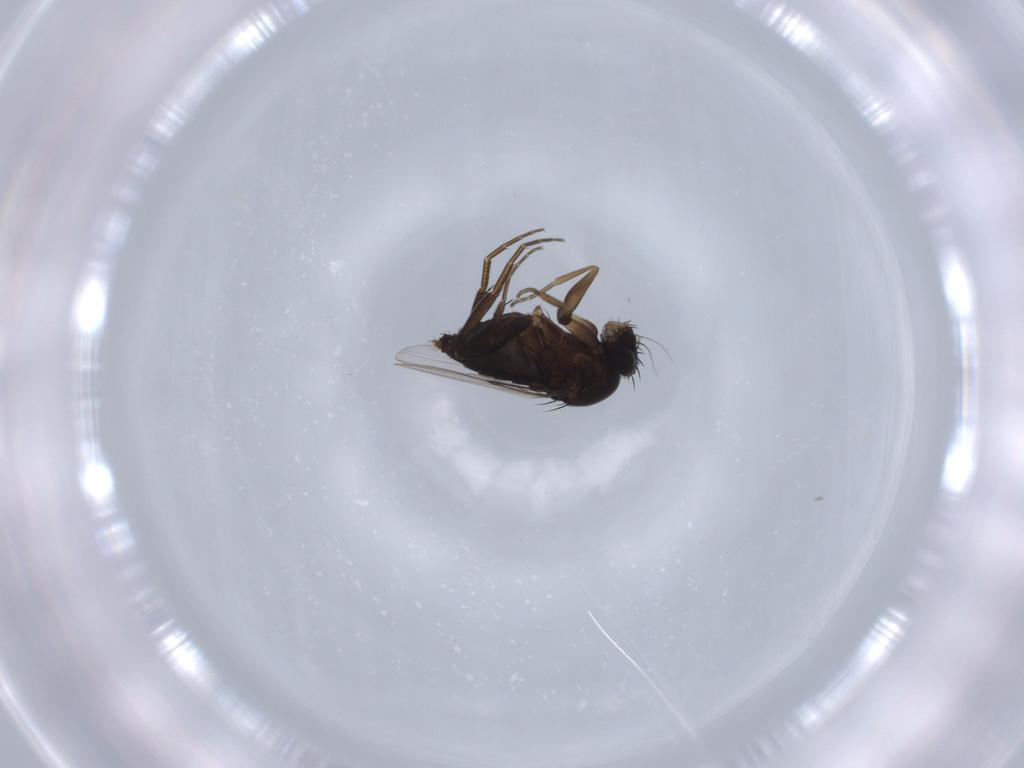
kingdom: Animalia
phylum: Arthropoda
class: Insecta
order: Diptera
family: Phoridae
